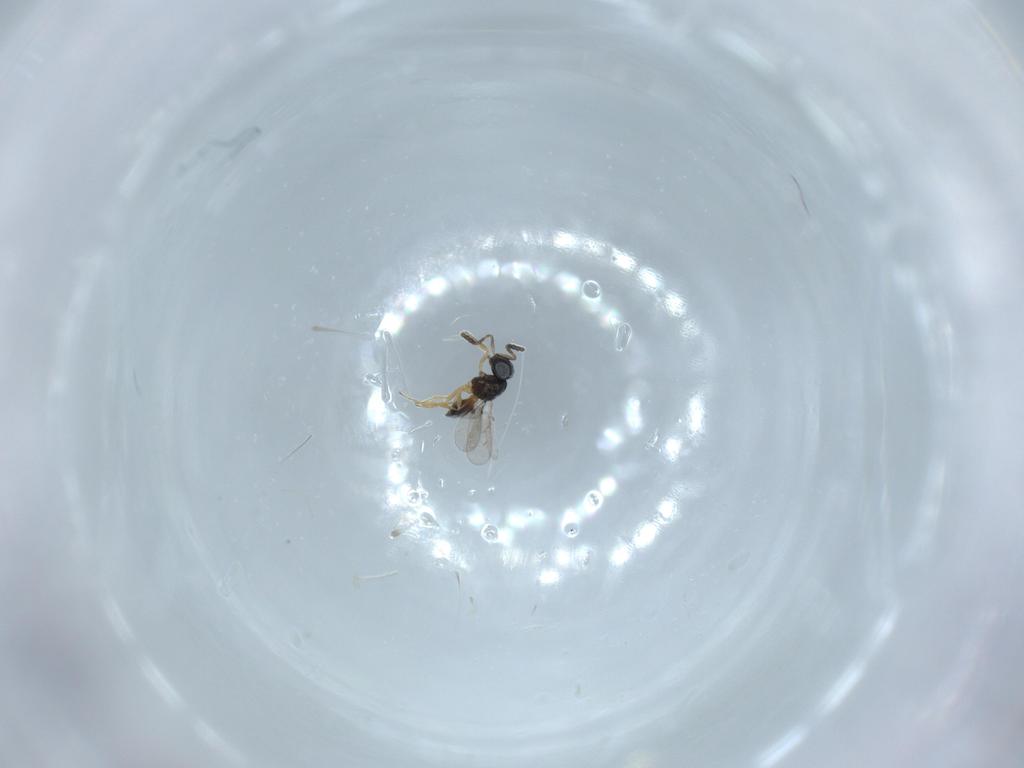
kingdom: Animalia
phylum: Arthropoda
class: Insecta
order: Hymenoptera
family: Scelionidae
